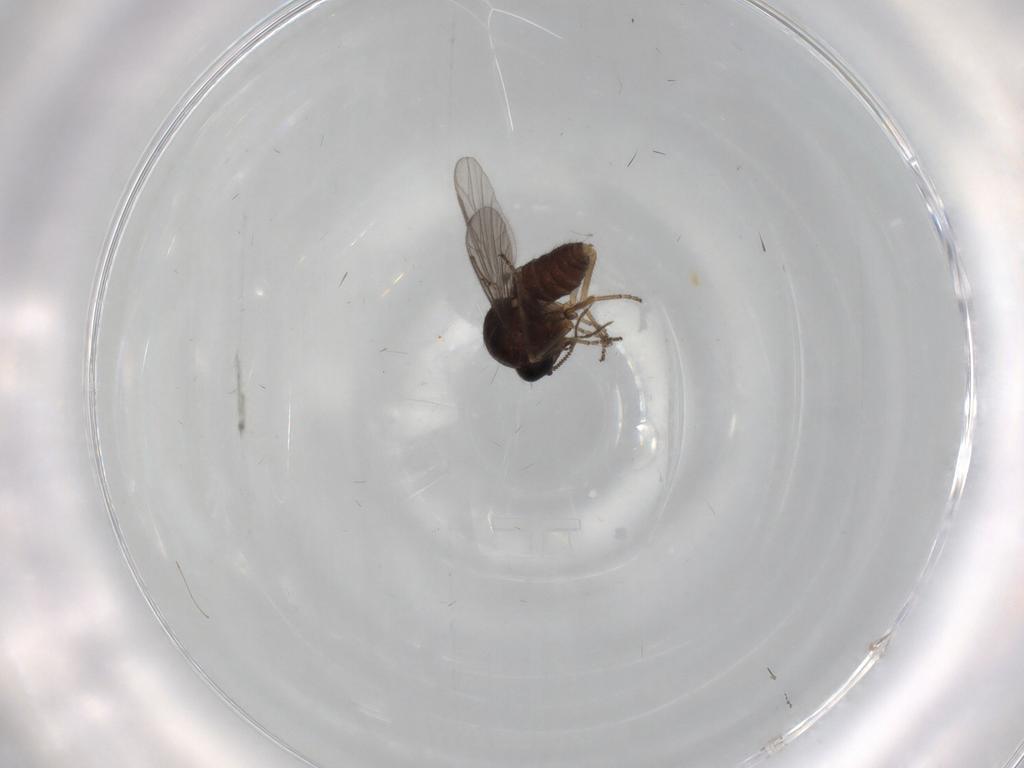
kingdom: Animalia
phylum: Arthropoda
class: Insecta
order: Diptera
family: Ceratopogonidae
